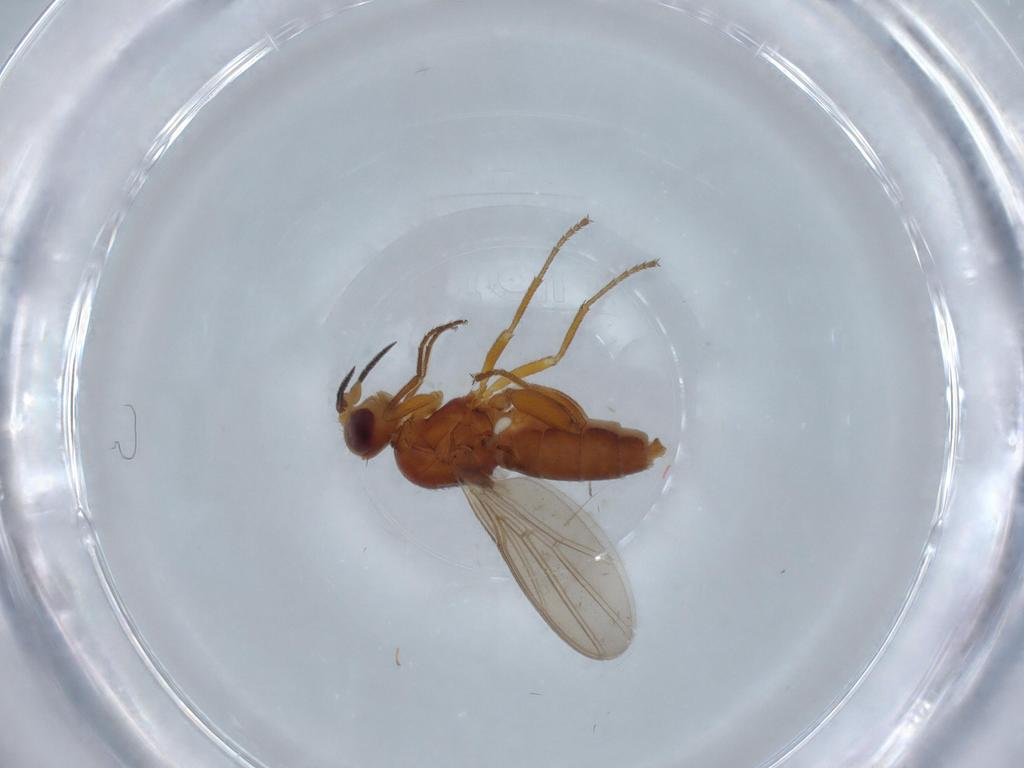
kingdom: Animalia
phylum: Arthropoda
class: Insecta
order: Diptera
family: Chloropidae
